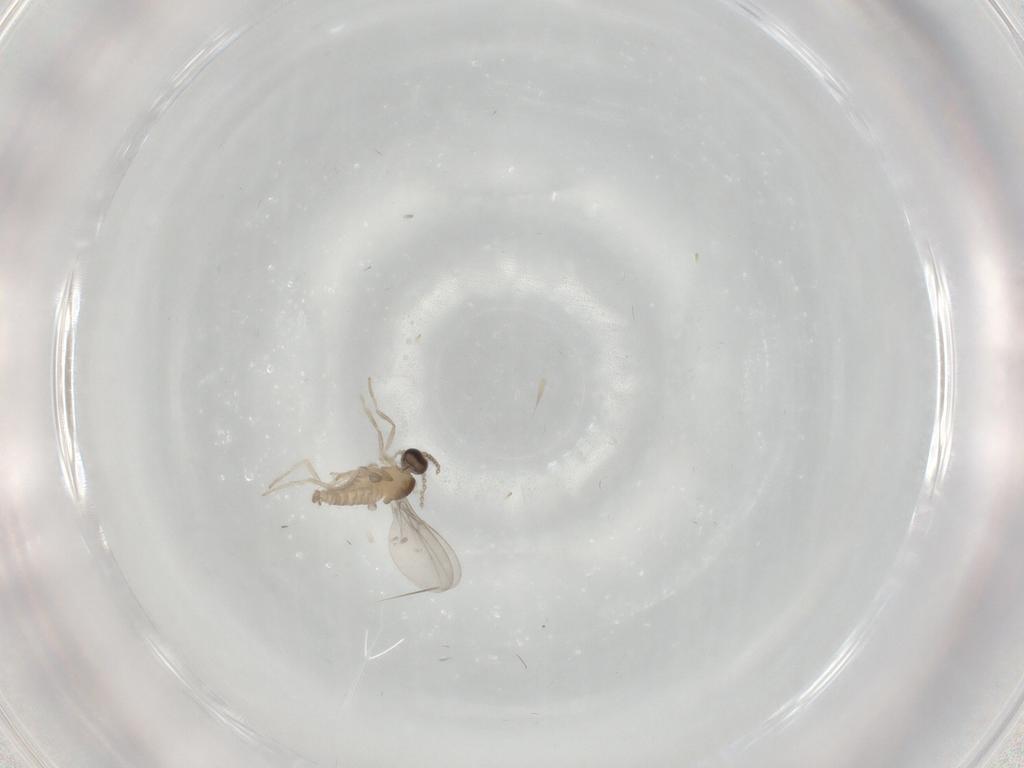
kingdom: Animalia
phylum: Arthropoda
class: Insecta
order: Diptera
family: Cecidomyiidae
